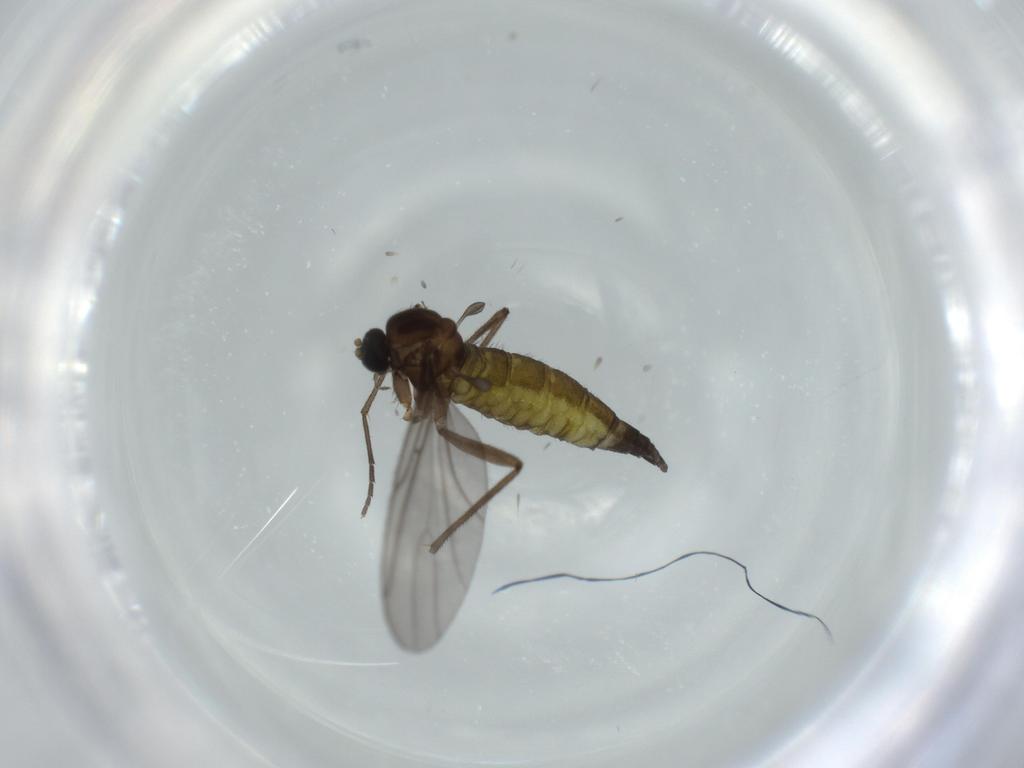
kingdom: Animalia
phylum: Arthropoda
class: Insecta
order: Diptera
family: Sciaridae
